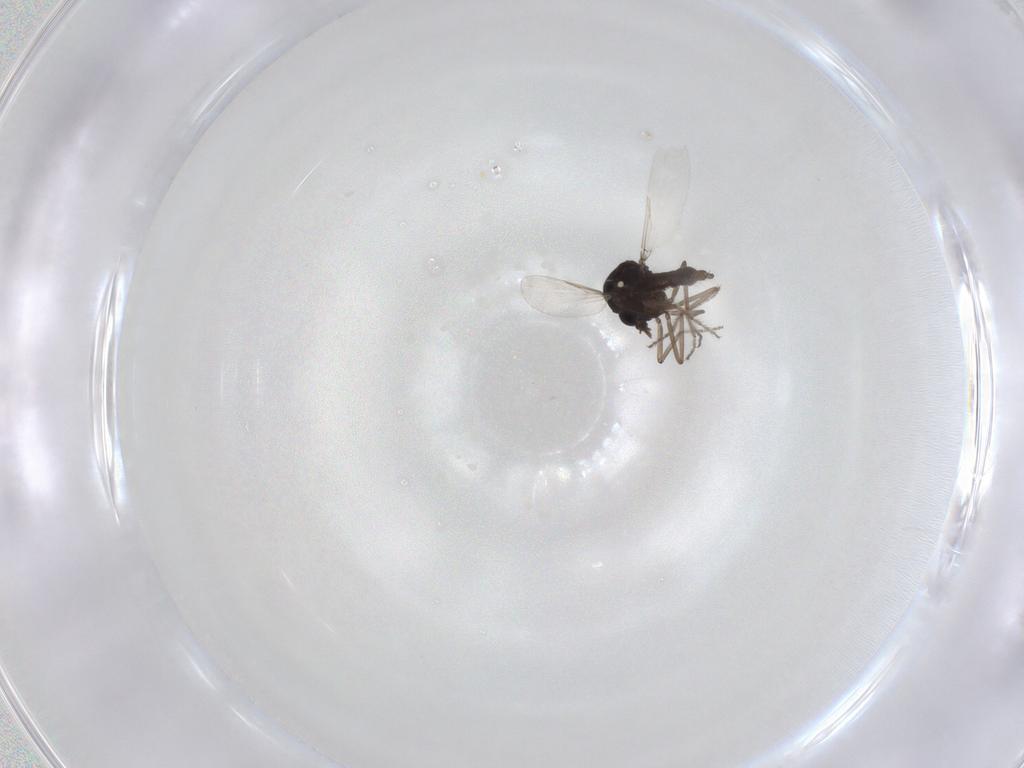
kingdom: Animalia
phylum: Arthropoda
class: Insecta
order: Diptera
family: Ceratopogonidae
